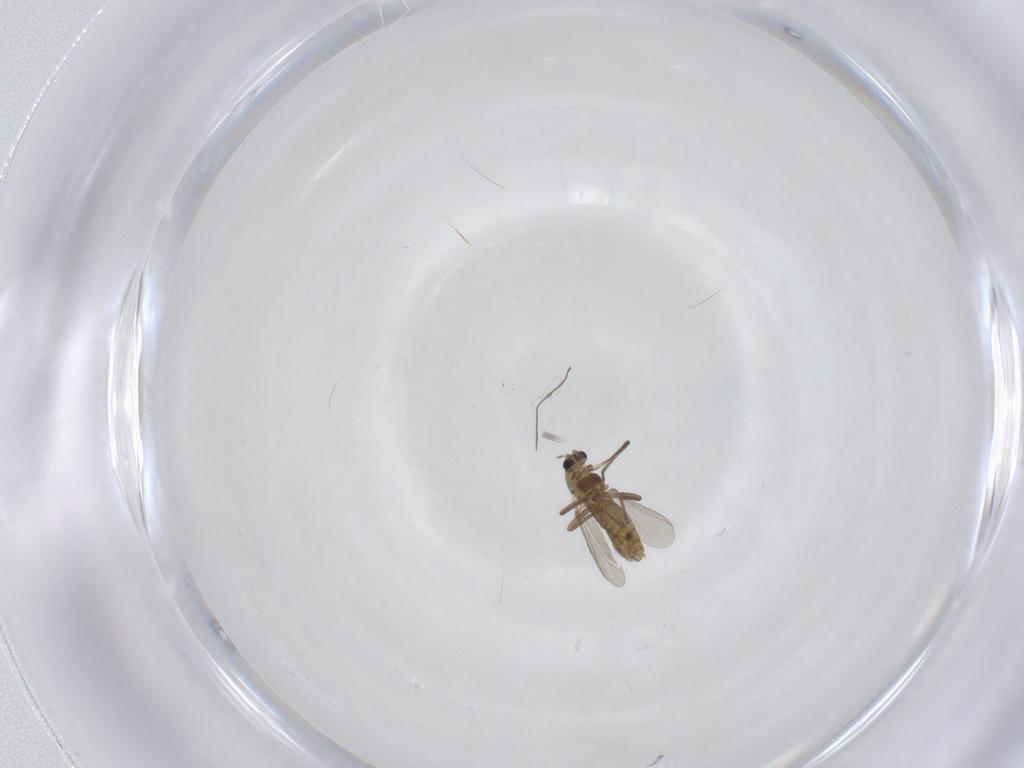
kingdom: Animalia
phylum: Arthropoda
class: Insecta
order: Diptera
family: Chironomidae
